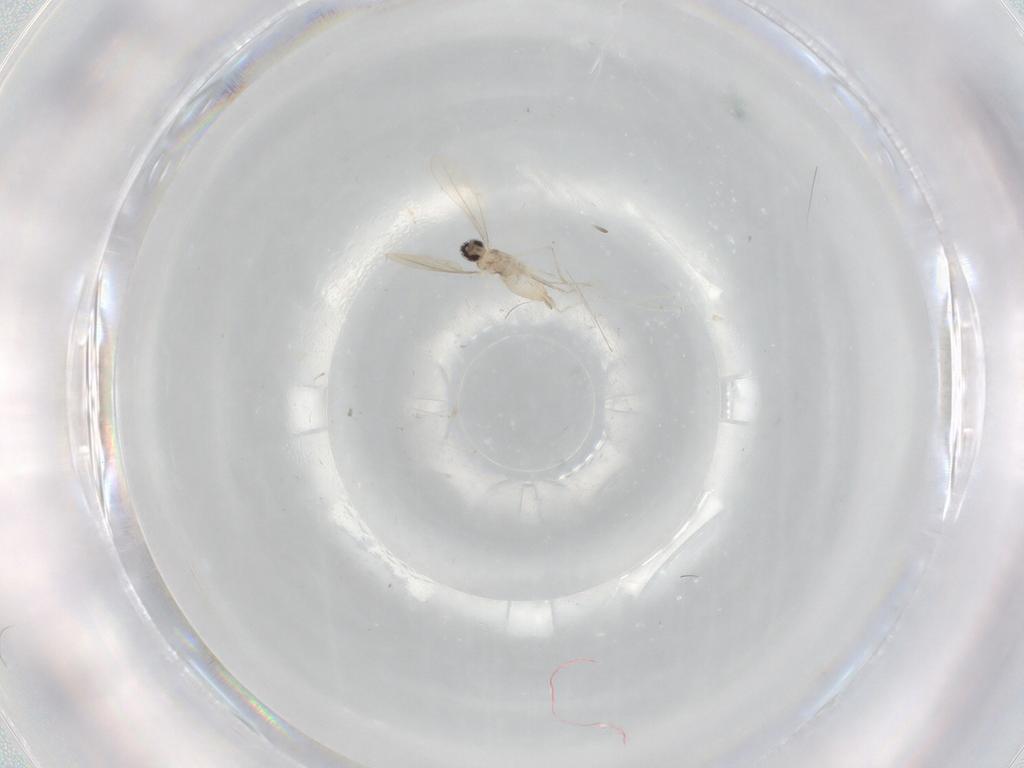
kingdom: Animalia
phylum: Arthropoda
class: Insecta
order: Diptera
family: Cecidomyiidae
